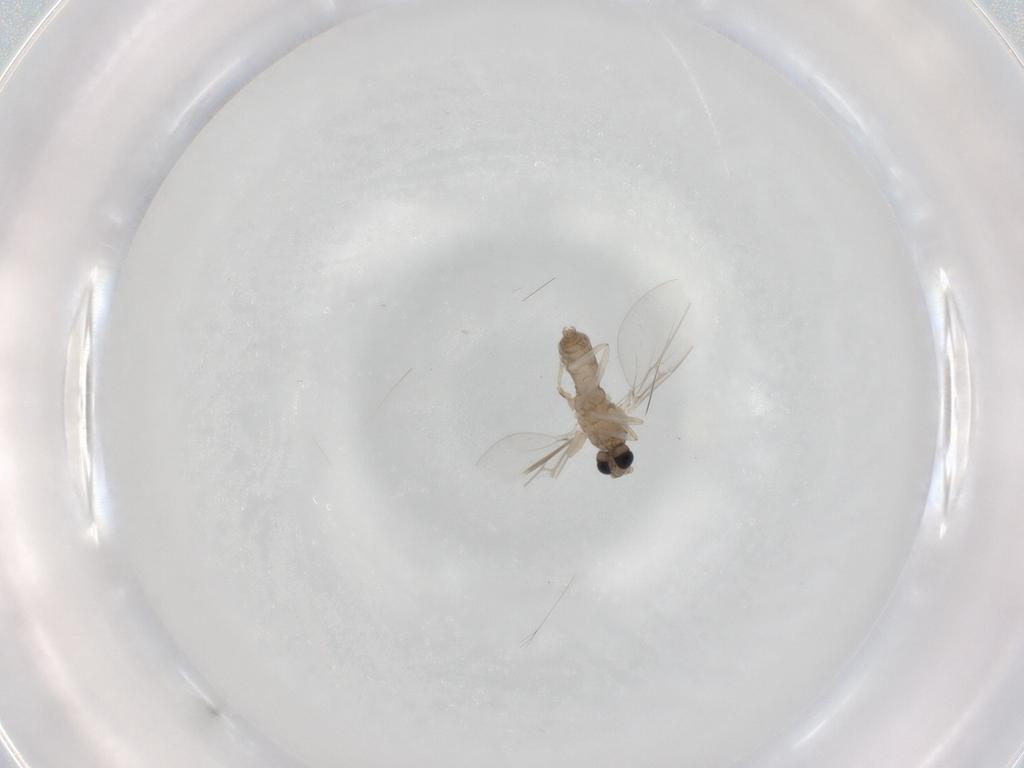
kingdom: Animalia
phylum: Arthropoda
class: Insecta
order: Diptera
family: Cecidomyiidae
